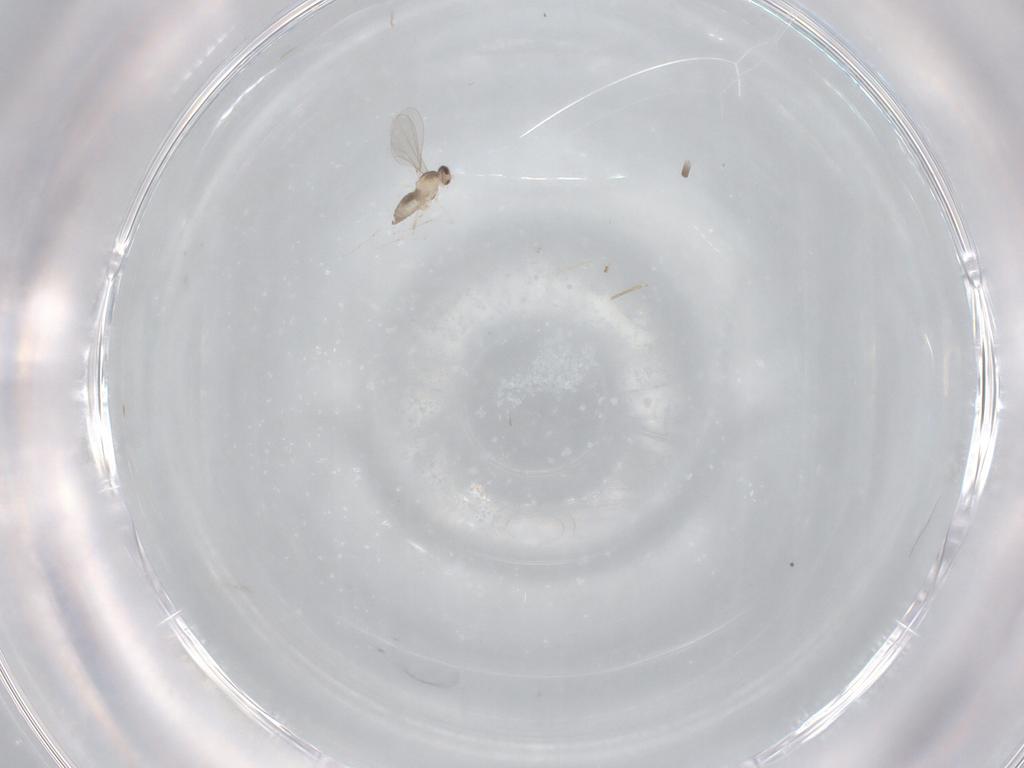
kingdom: Animalia
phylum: Arthropoda
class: Insecta
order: Diptera
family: Cecidomyiidae
